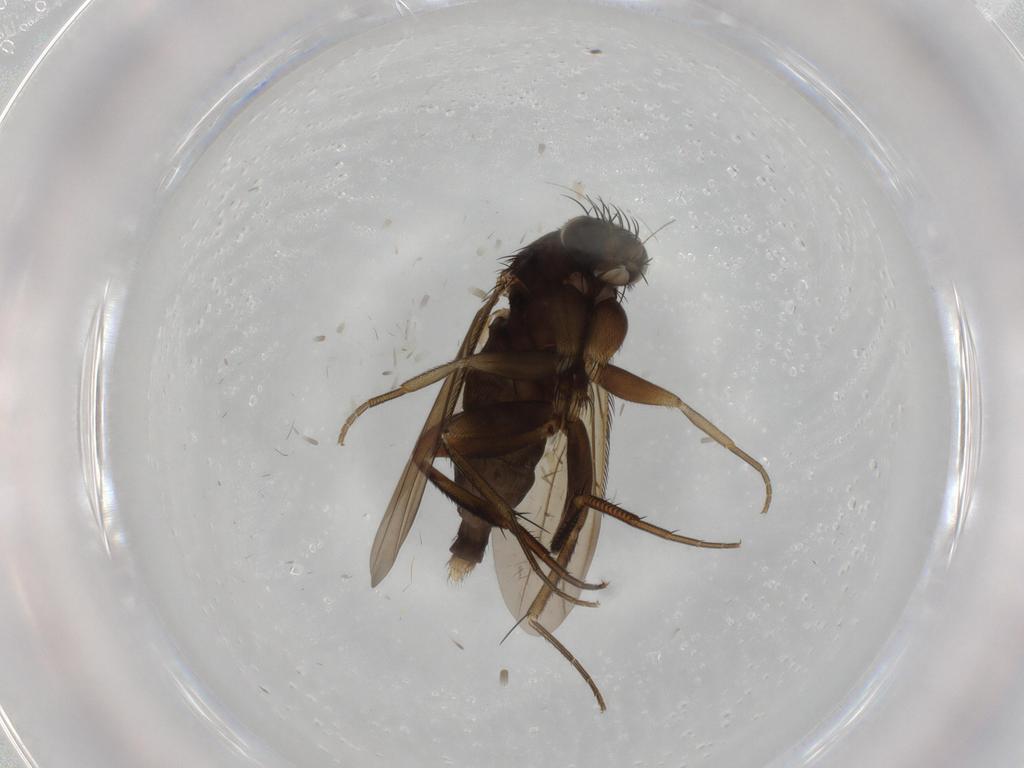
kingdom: Animalia
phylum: Arthropoda
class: Insecta
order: Diptera
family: Phoridae
